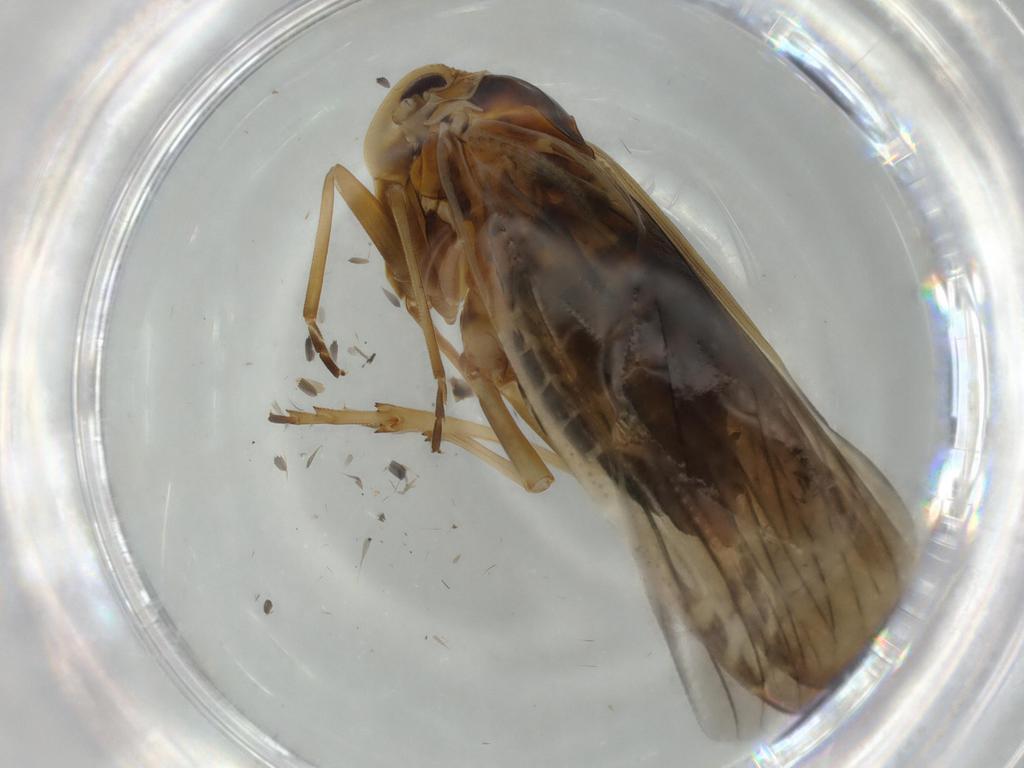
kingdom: Animalia
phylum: Arthropoda
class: Insecta
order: Hemiptera
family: Derbidae
